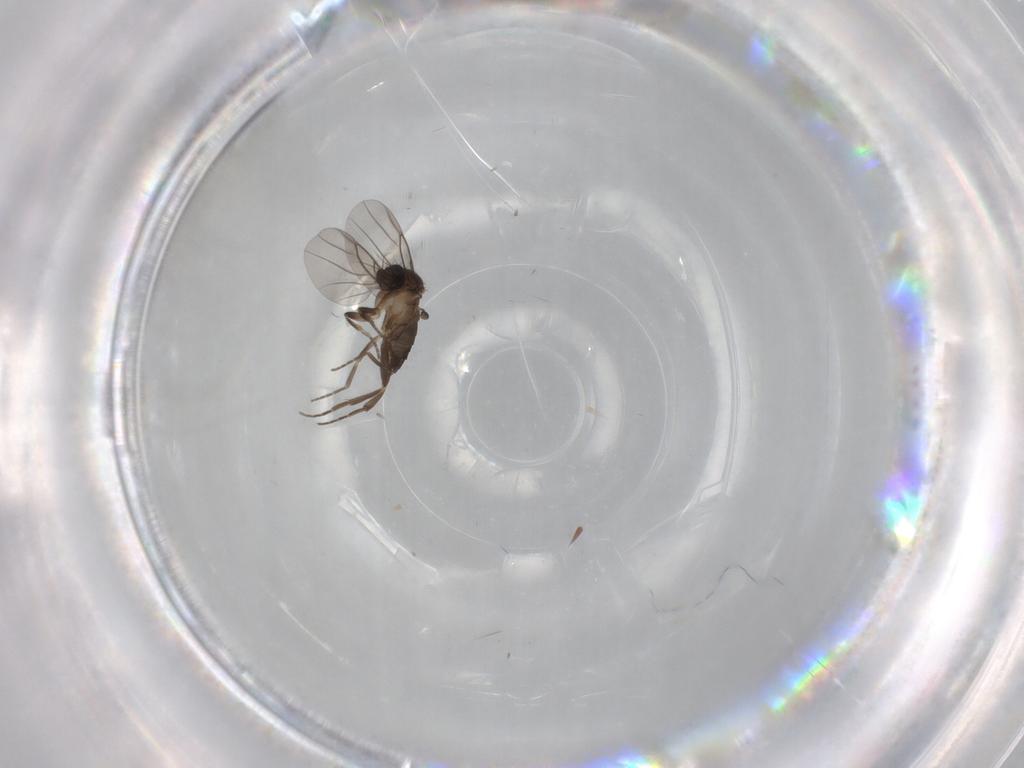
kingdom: Animalia
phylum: Arthropoda
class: Insecta
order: Diptera
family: Phoridae
